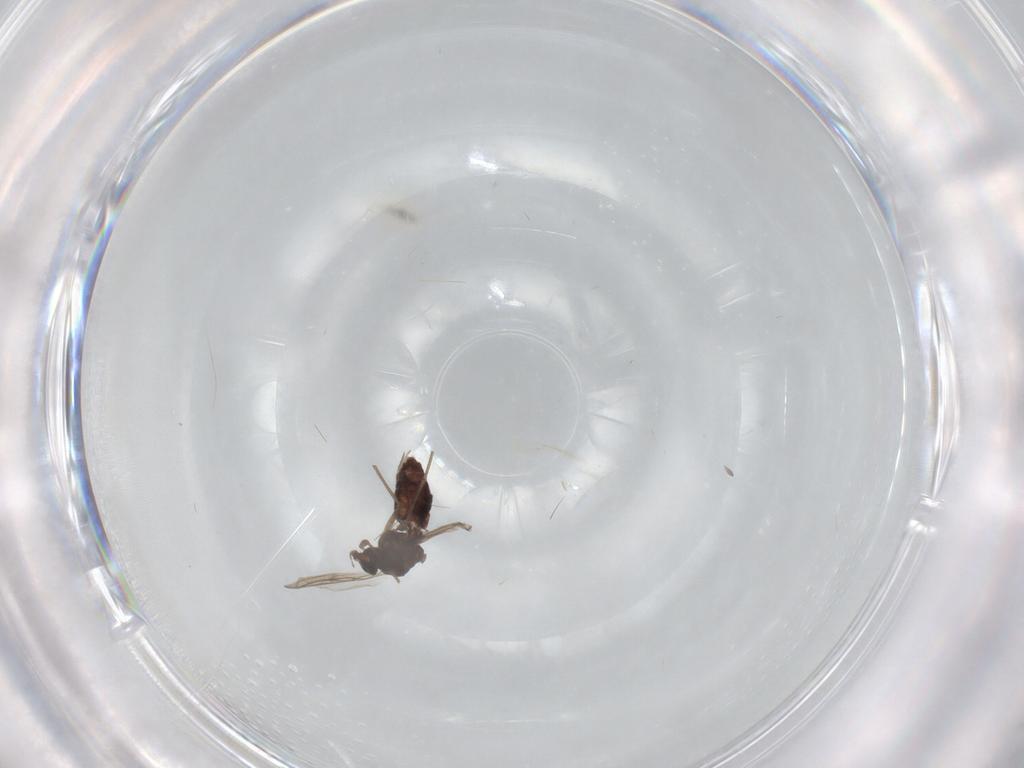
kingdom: Animalia
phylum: Arthropoda
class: Insecta
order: Diptera
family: Chironomidae
